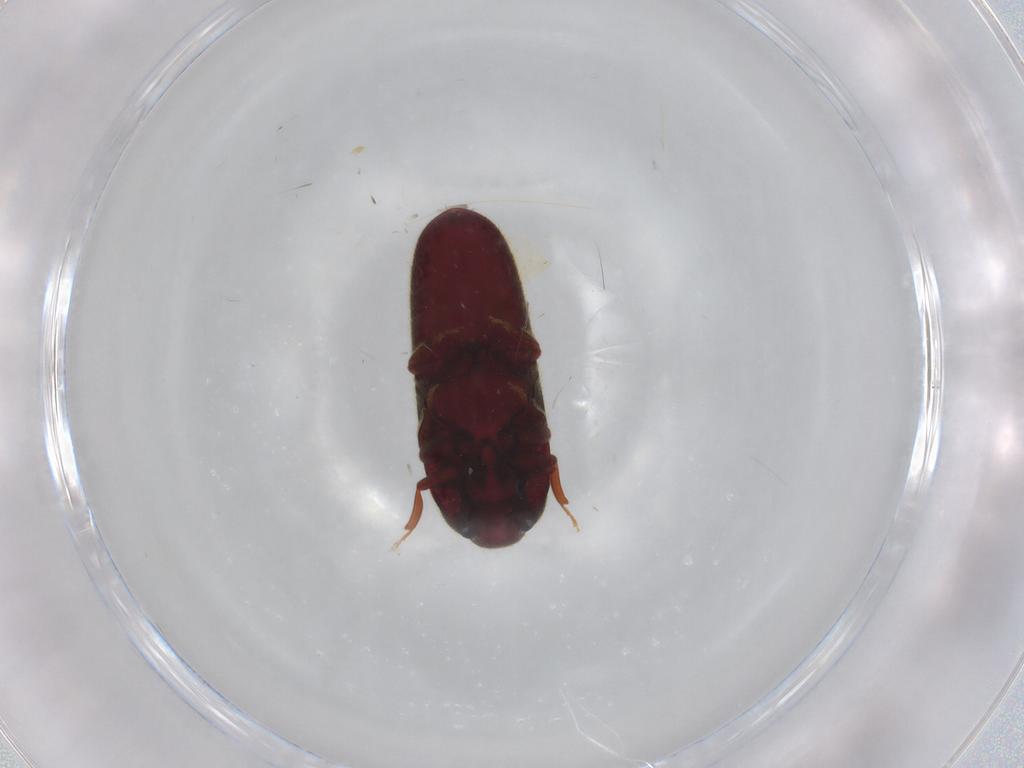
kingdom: Animalia
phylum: Arthropoda
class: Insecta
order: Coleoptera
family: Throscidae
